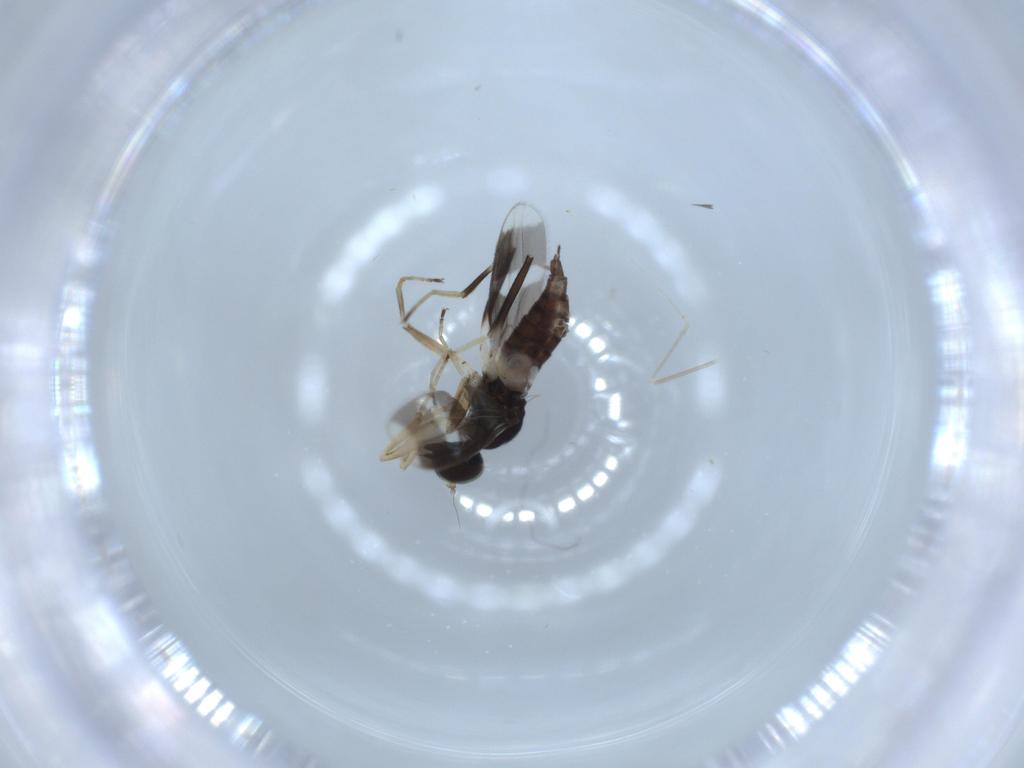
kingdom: Animalia
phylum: Arthropoda
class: Insecta
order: Diptera
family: Hybotidae
